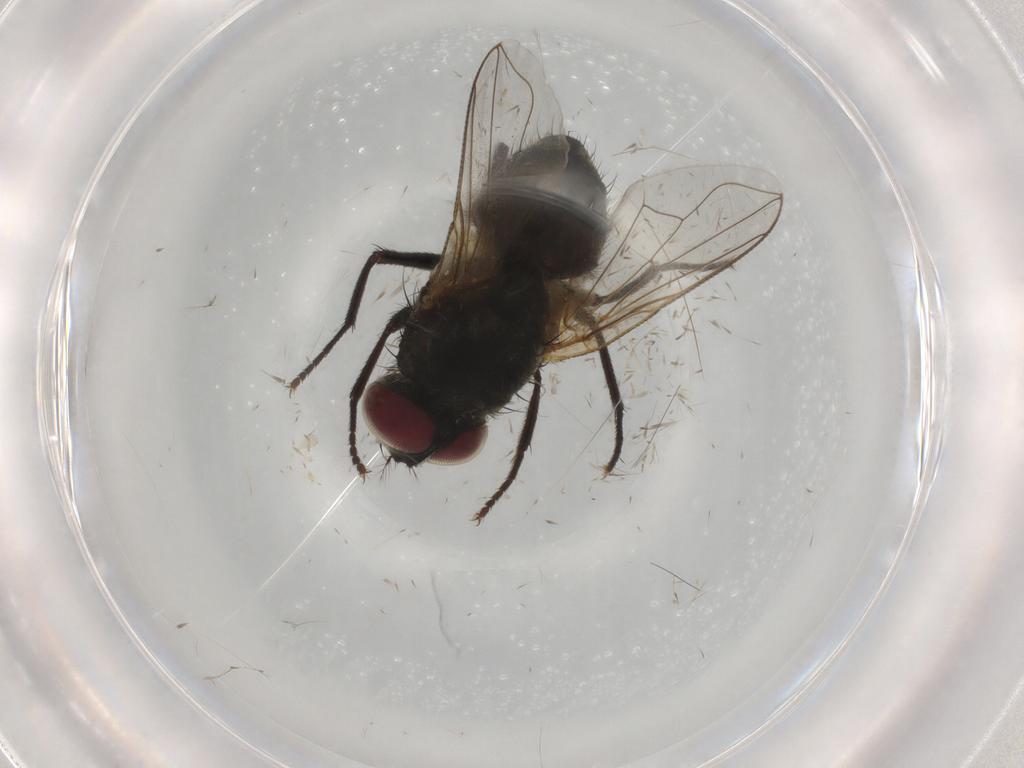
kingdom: Animalia
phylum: Arthropoda
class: Insecta
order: Diptera
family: Muscidae
